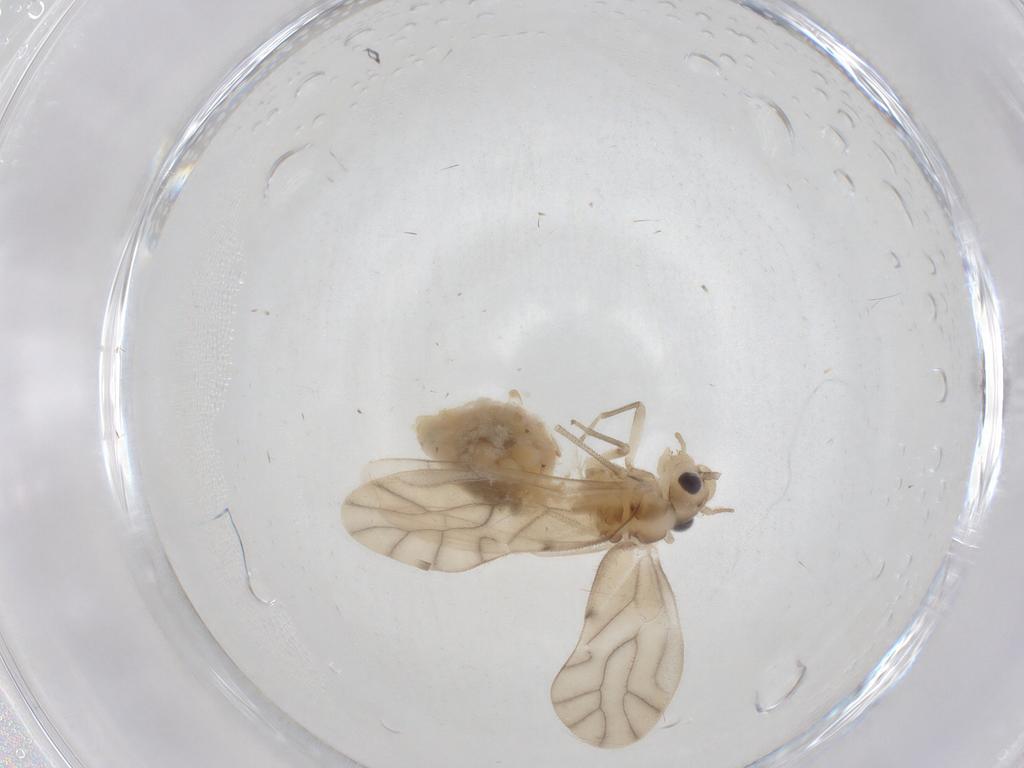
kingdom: Animalia
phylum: Arthropoda
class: Insecta
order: Psocodea
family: Caeciliusidae
